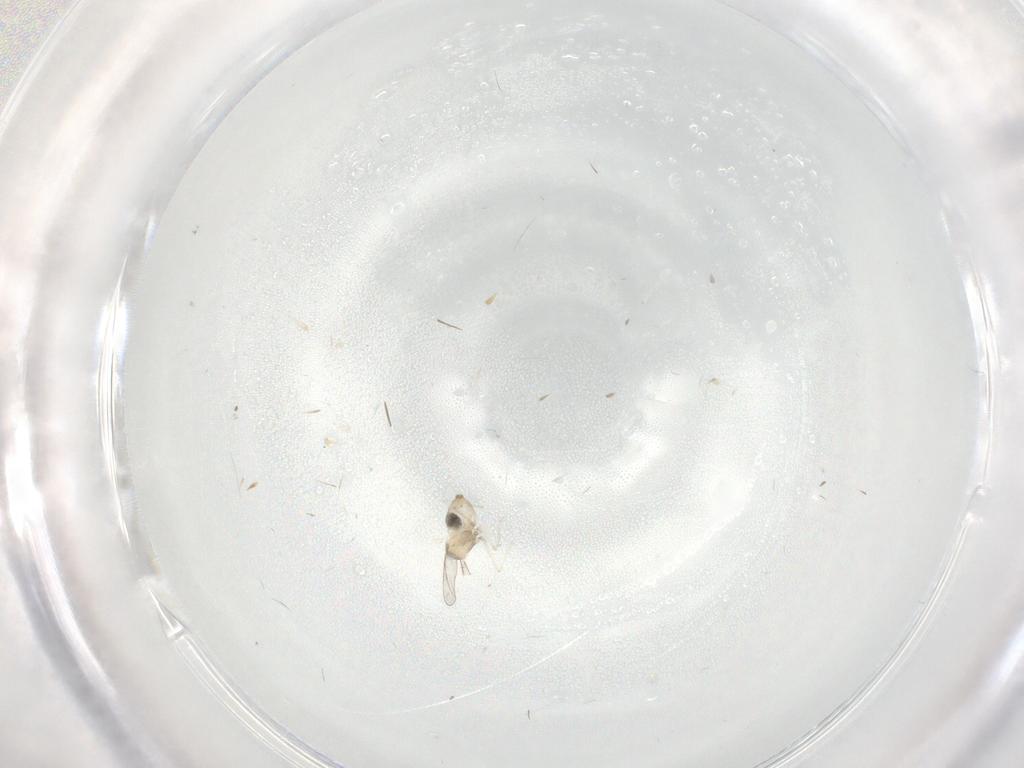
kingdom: Animalia
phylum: Arthropoda
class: Insecta
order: Diptera
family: Cecidomyiidae
